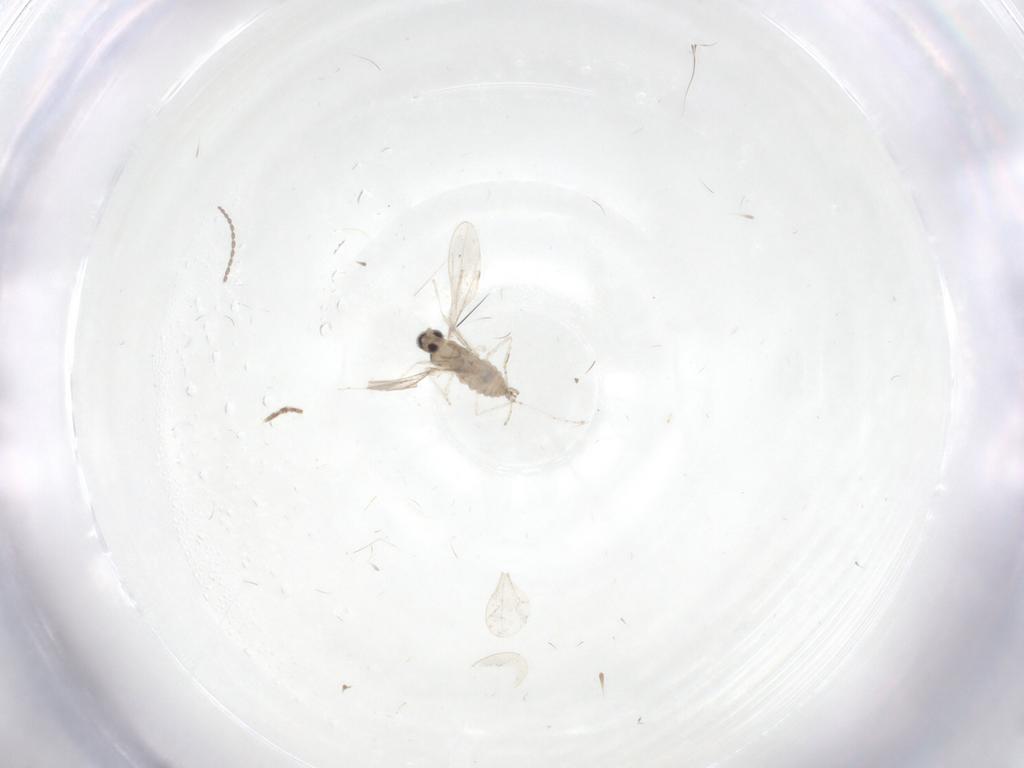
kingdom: Animalia
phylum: Arthropoda
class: Insecta
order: Diptera
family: Cecidomyiidae
